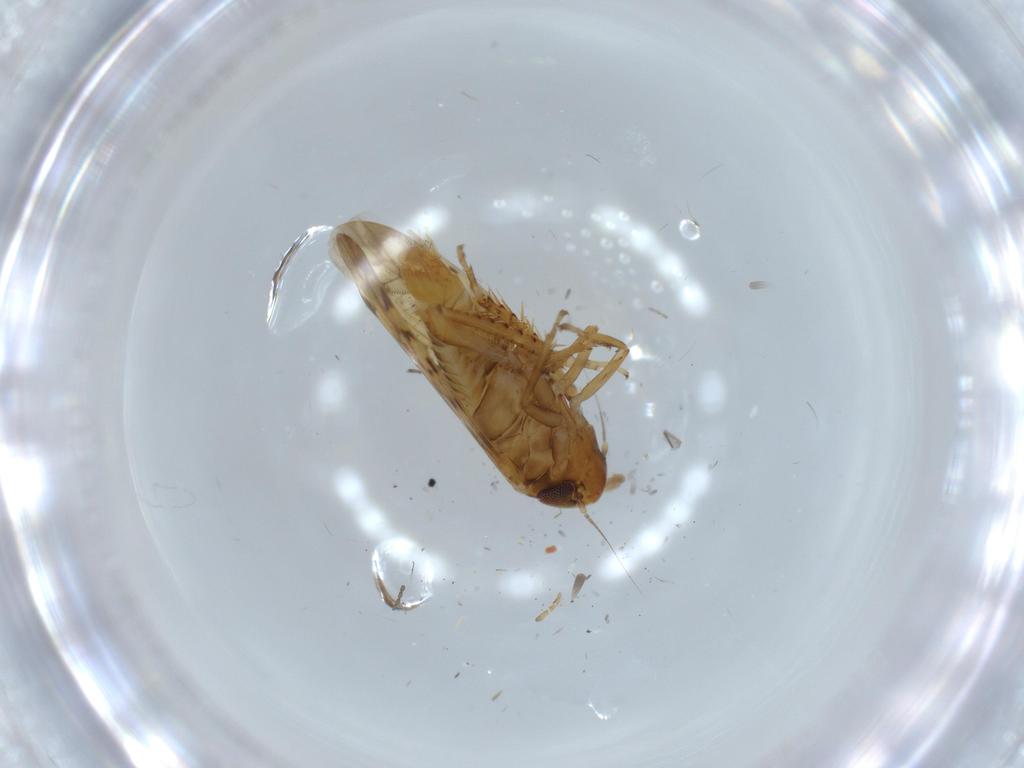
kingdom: Animalia
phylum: Arthropoda
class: Insecta
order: Hemiptera
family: Cicadellidae
